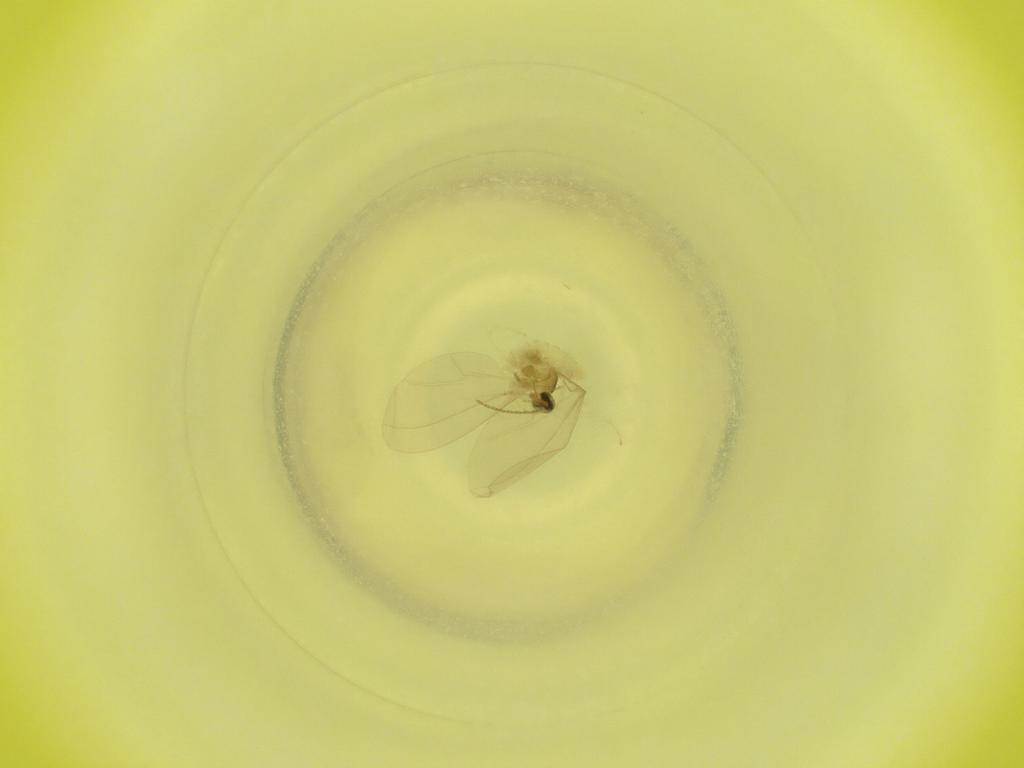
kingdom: Animalia
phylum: Arthropoda
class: Insecta
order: Diptera
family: Cecidomyiidae
